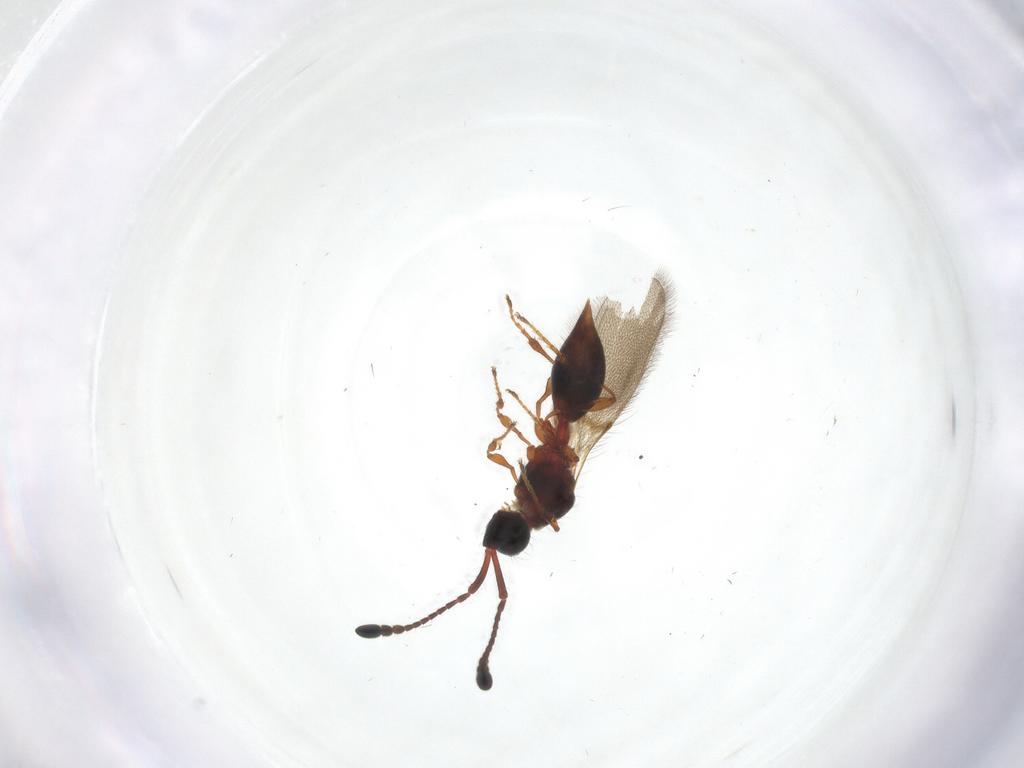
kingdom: Animalia
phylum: Arthropoda
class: Insecta
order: Hymenoptera
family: Diapriidae
